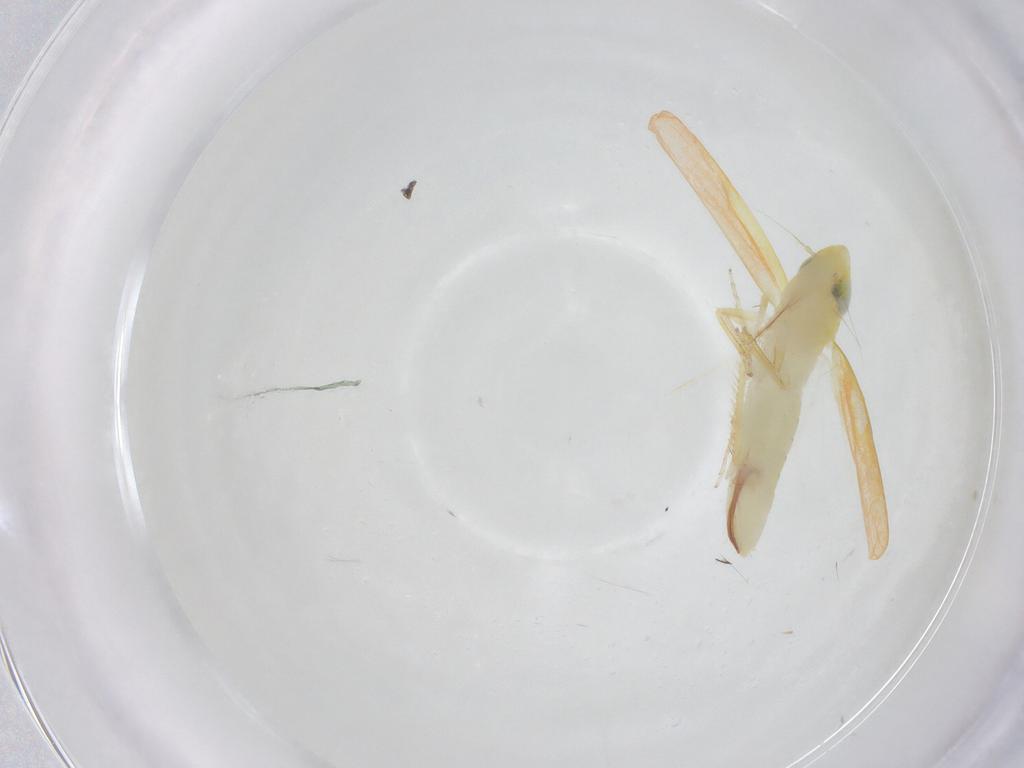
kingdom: Animalia
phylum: Arthropoda
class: Insecta
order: Hemiptera
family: Cicadellidae
